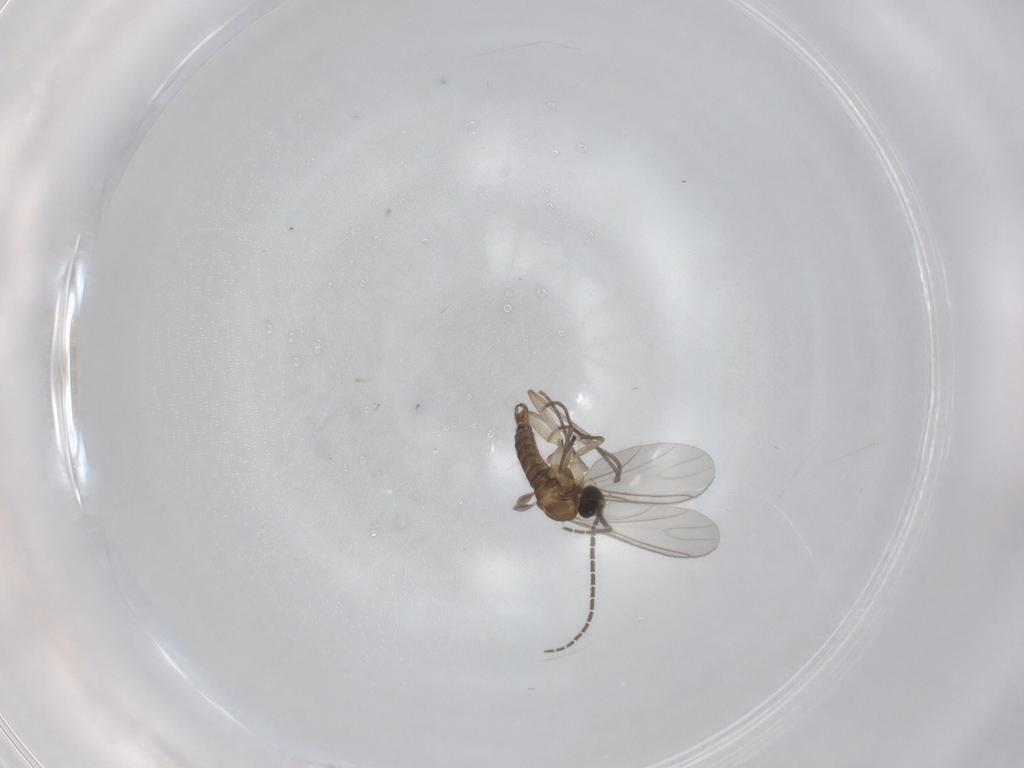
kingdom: Animalia
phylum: Arthropoda
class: Insecta
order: Diptera
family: Sciaridae
